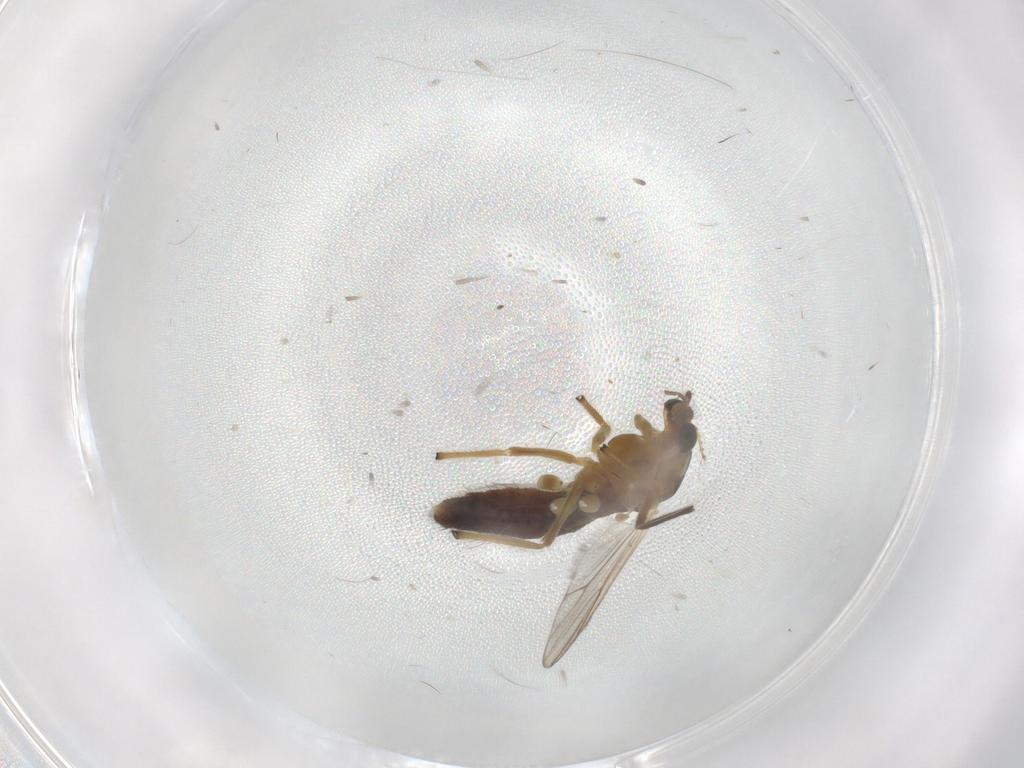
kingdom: Animalia
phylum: Arthropoda
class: Insecta
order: Diptera
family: Chironomidae
